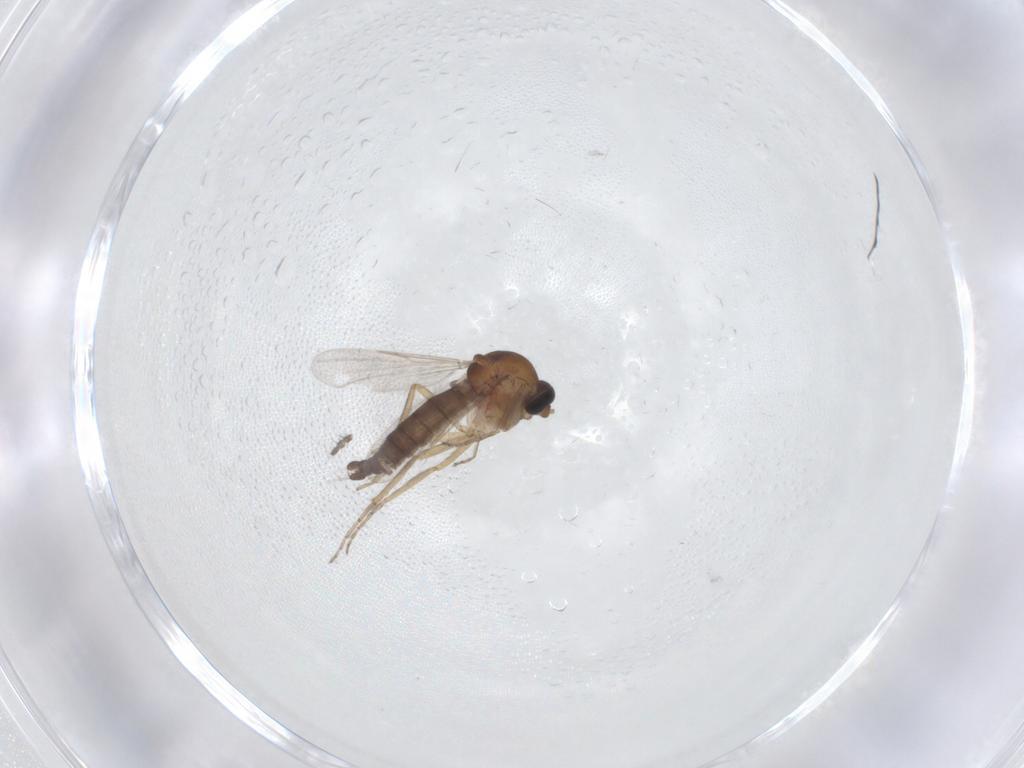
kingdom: Animalia
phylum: Arthropoda
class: Insecta
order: Diptera
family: Ceratopogonidae
